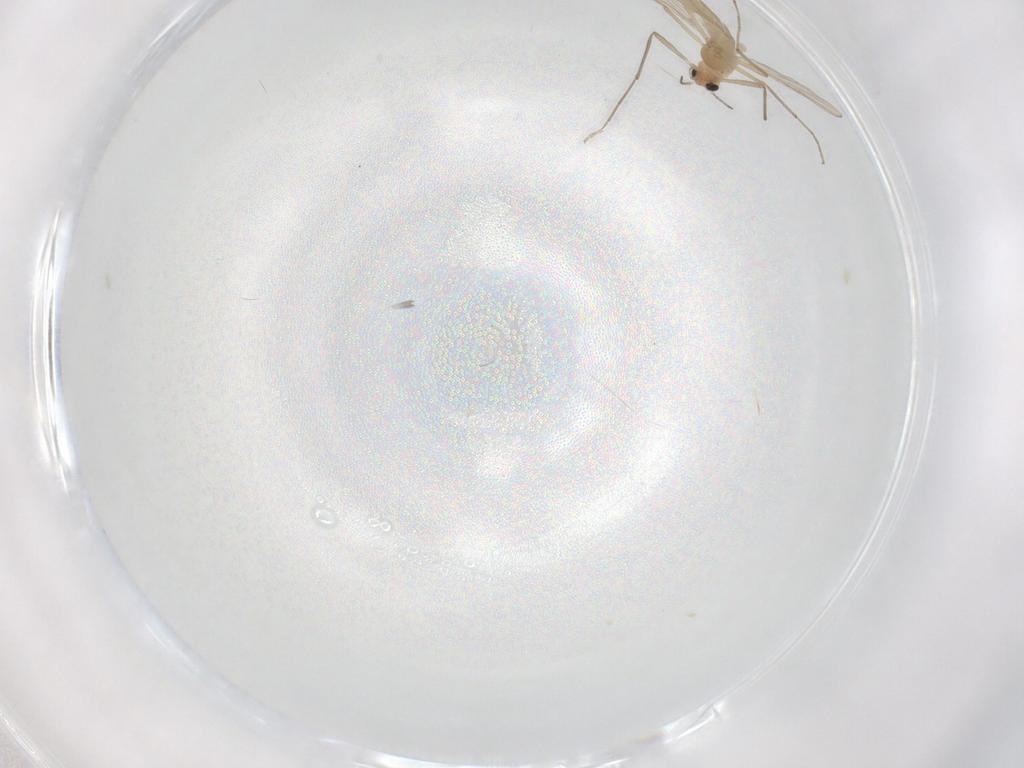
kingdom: Animalia
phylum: Arthropoda
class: Insecta
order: Diptera
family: Chironomidae
